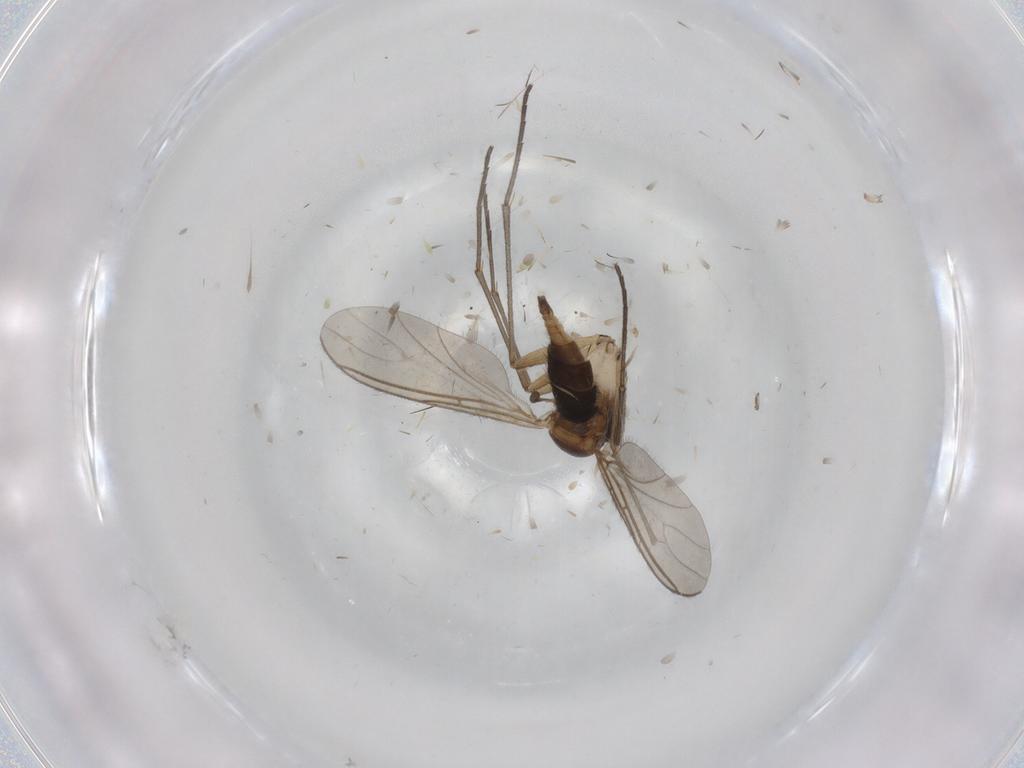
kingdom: Animalia
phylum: Arthropoda
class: Insecta
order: Diptera
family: Sciaridae
